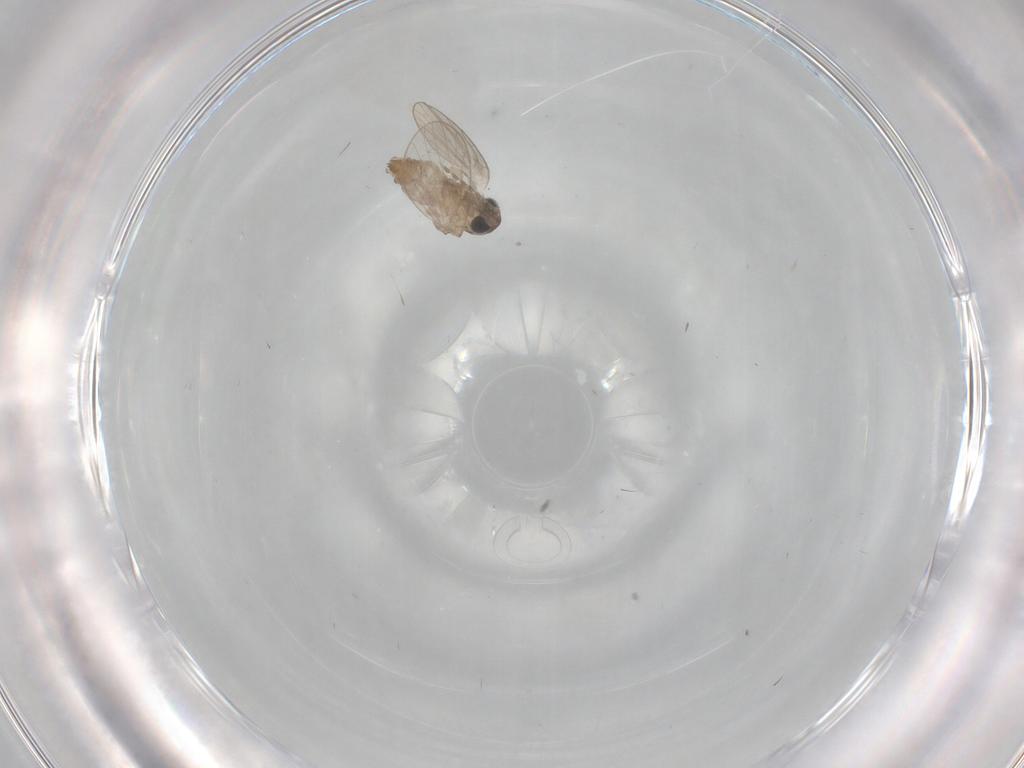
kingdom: Animalia
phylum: Arthropoda
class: Insecta
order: Diptera
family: Psychodidae
